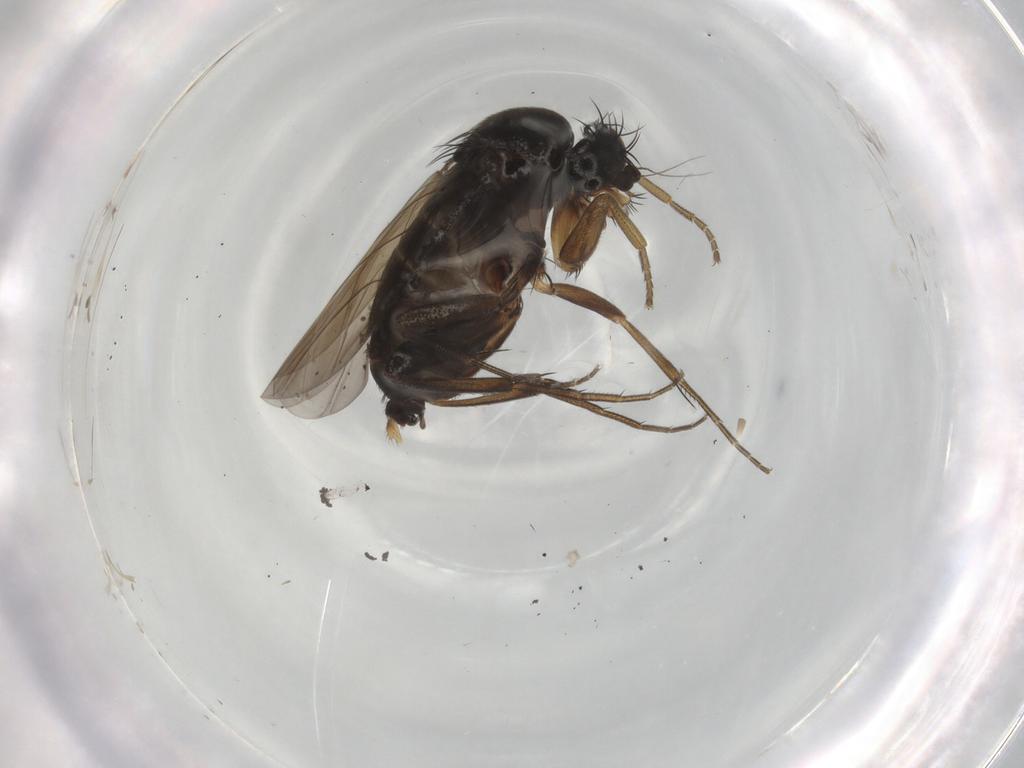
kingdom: Animalia
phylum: Arthropoda
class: Insecta
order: Diptera
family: Phoridae
